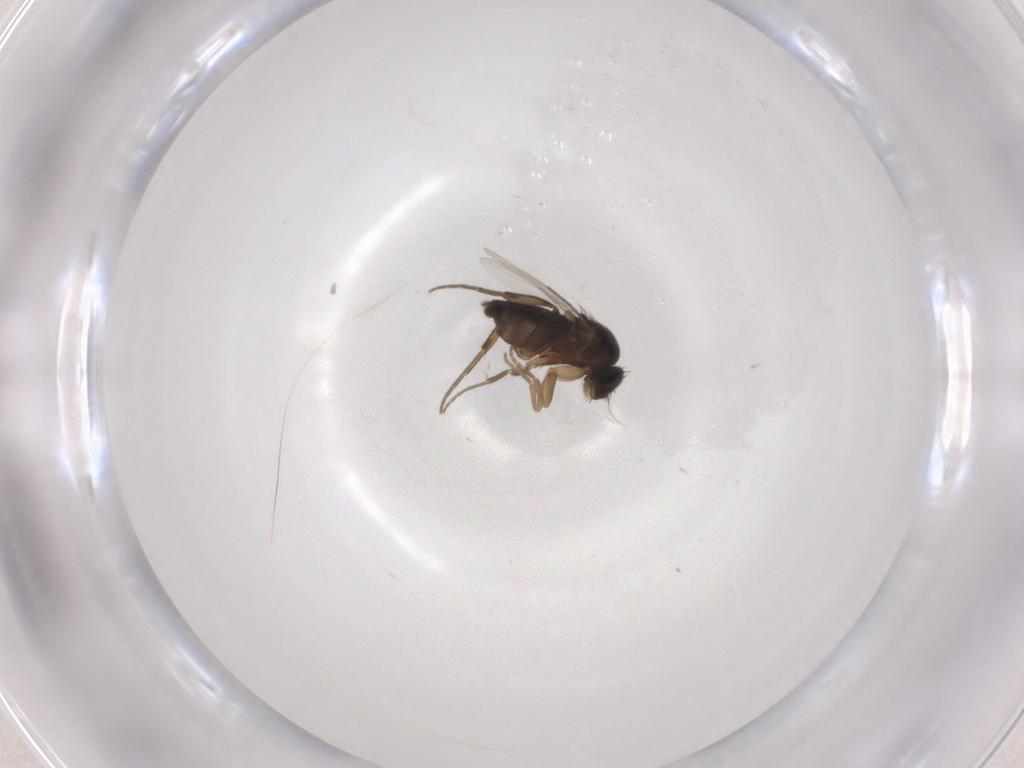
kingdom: Animalia
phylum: Arthropoda
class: Insecta
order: Diptera
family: Phoridae
